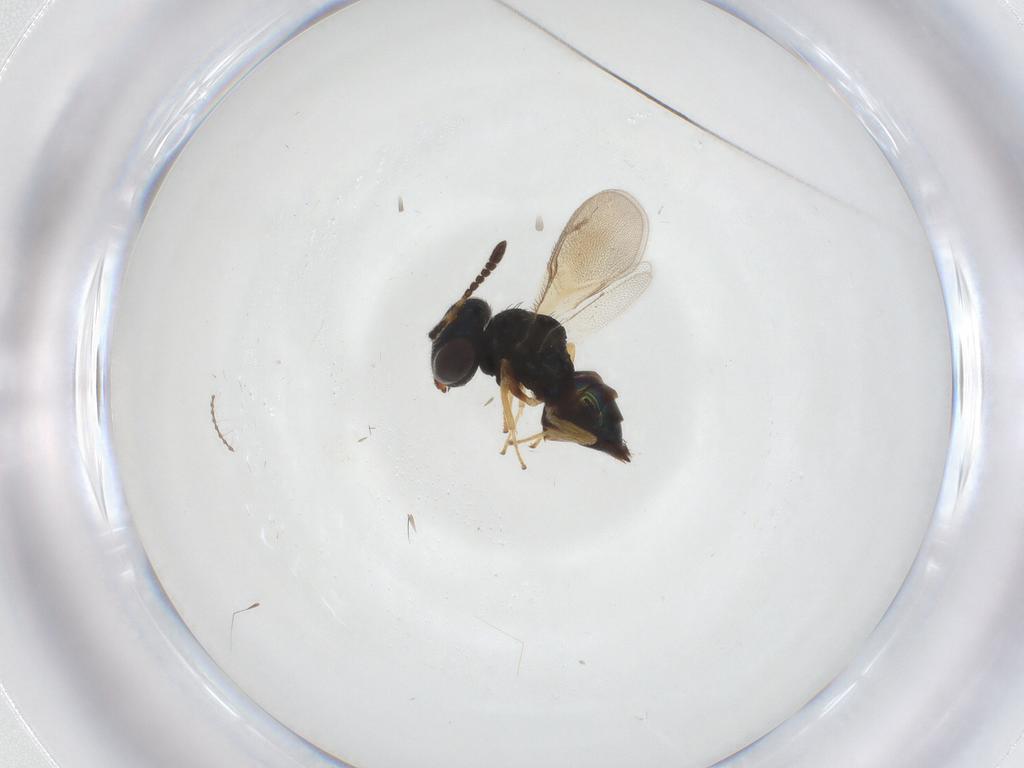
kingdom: Animalia
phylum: Arthropoda
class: Insecta
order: Hymenoptera
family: Pteromalidae
